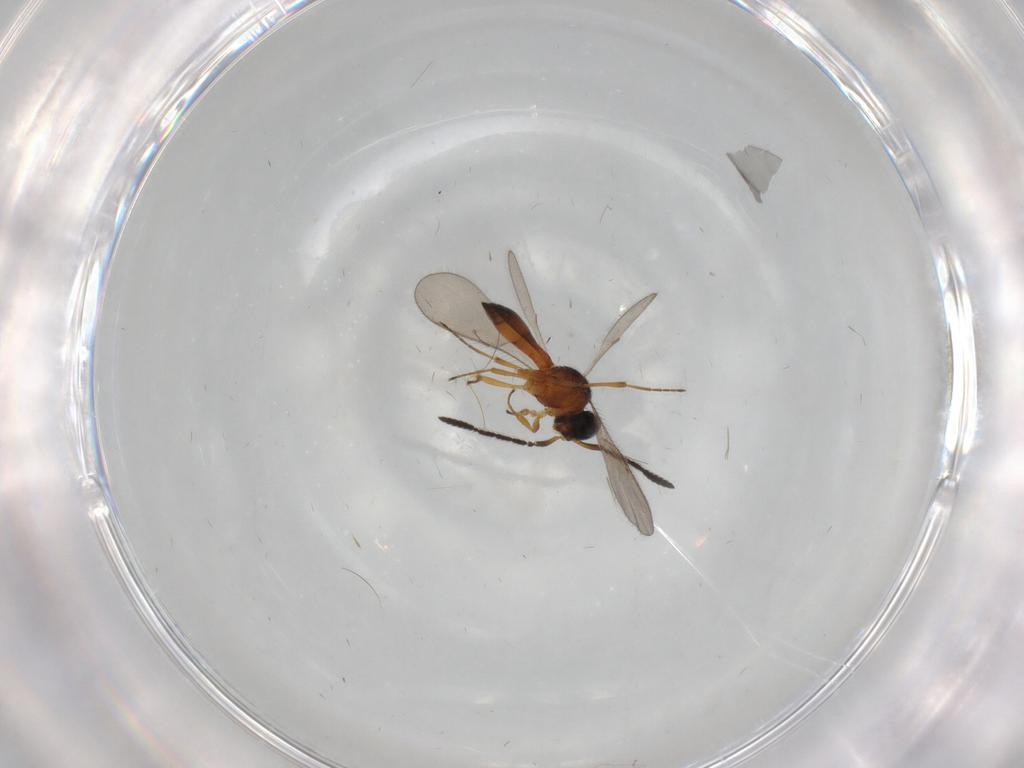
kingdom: Animalia
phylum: Arthropoda
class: Insecta
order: Hymenoptera
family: Scelionidae
